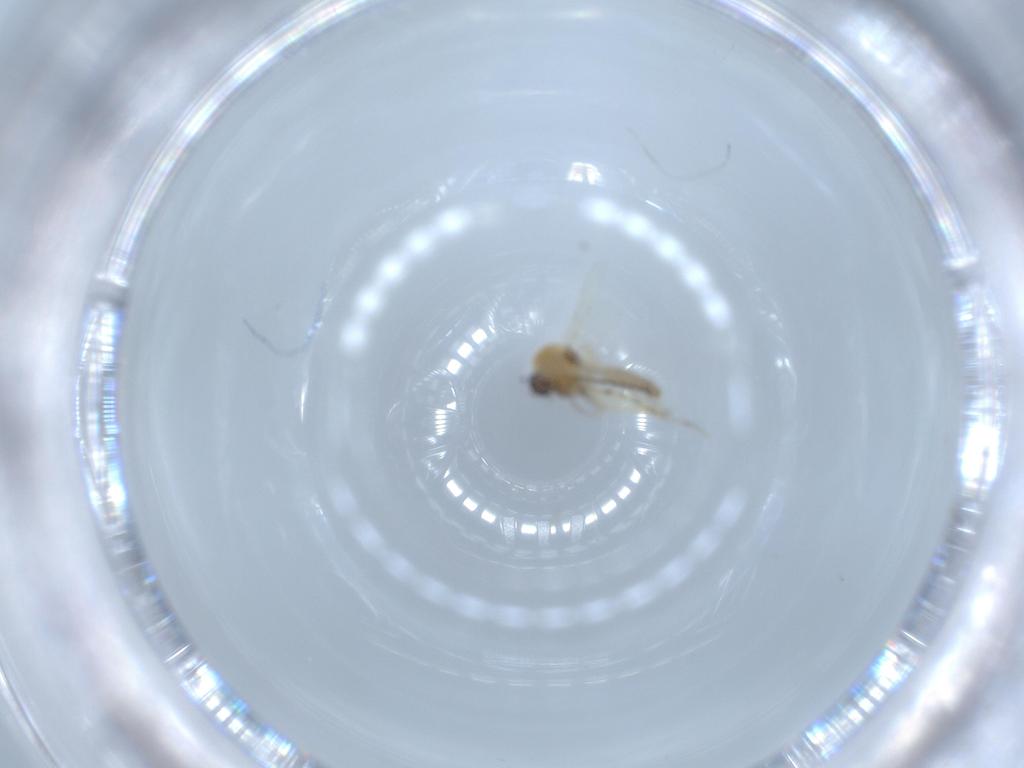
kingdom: Animalia
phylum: Arthropoda
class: Insecta
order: Diptera
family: Ceratopogonidae
